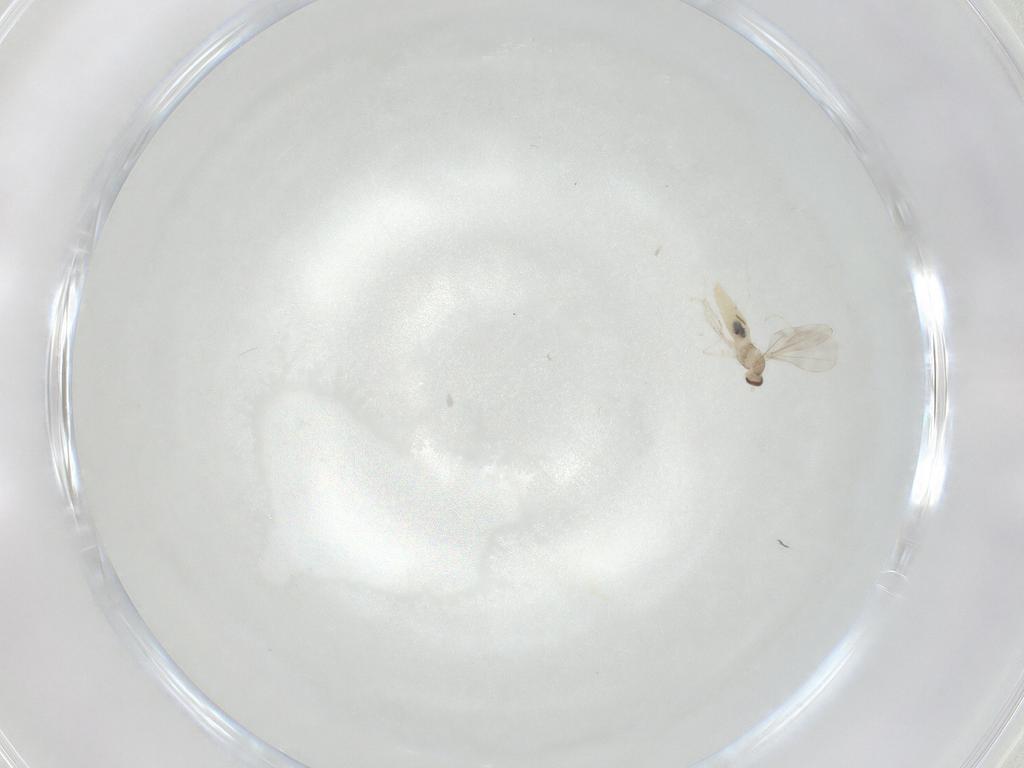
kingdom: Animalia
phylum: Arthropoda
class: Insecta
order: Diptera
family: Cecidomyiidae
